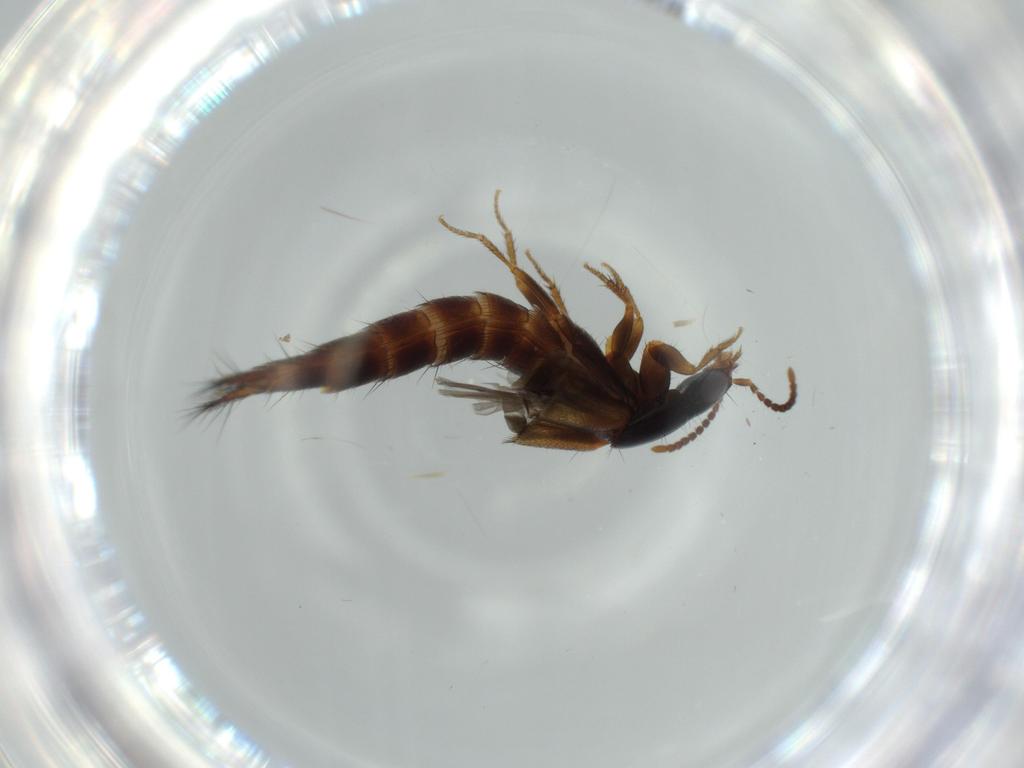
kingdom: Animalia
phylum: Arthropoda
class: Insecta
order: Coleoptera
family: Staphylinidae
